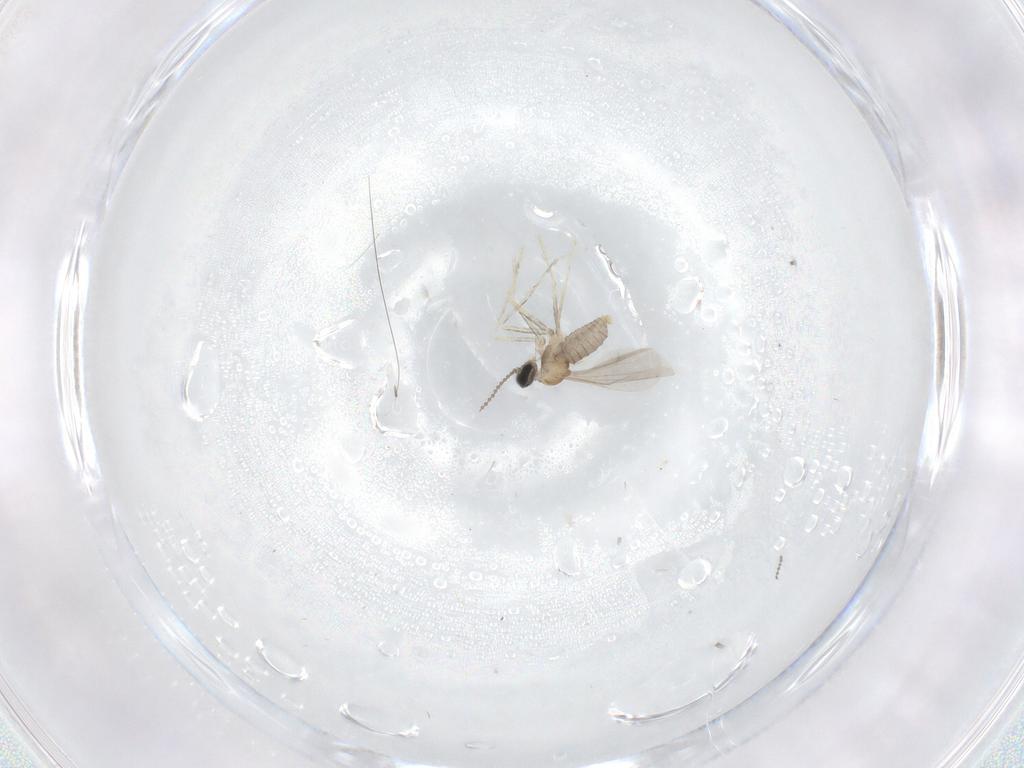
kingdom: Animalia
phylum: Arthropoda
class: Insecta
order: Diptera
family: Cecidomyiidae
